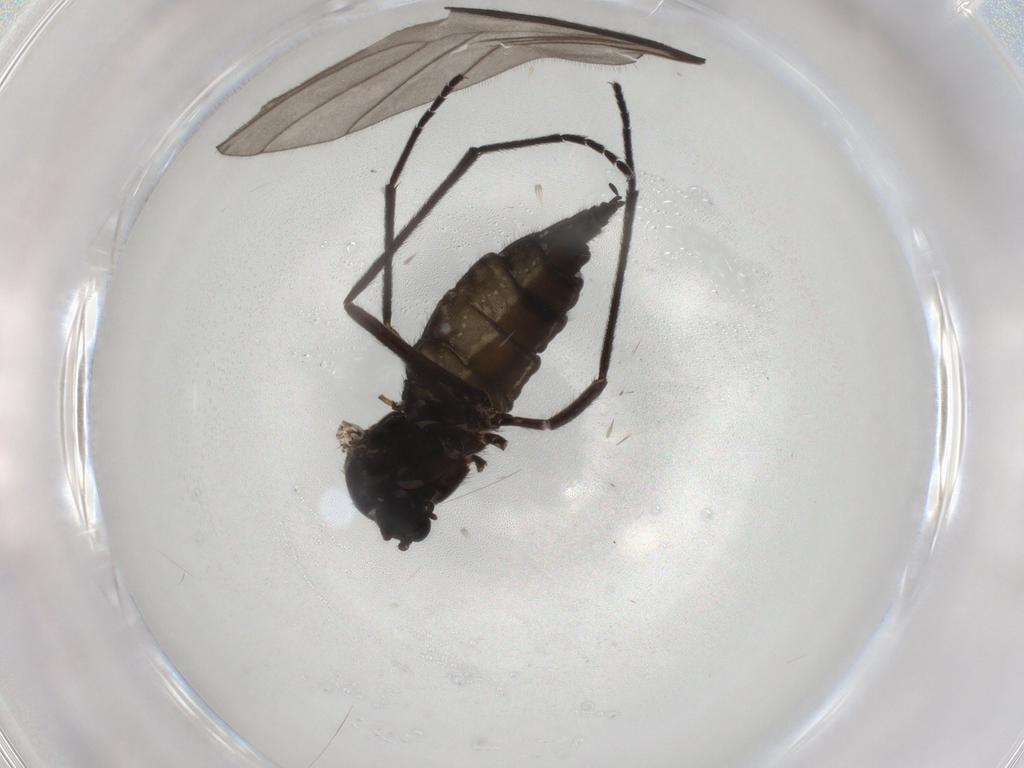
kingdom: Animalia
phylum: Arthropoda
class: Insecta
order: Diptera
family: Sciaridae
